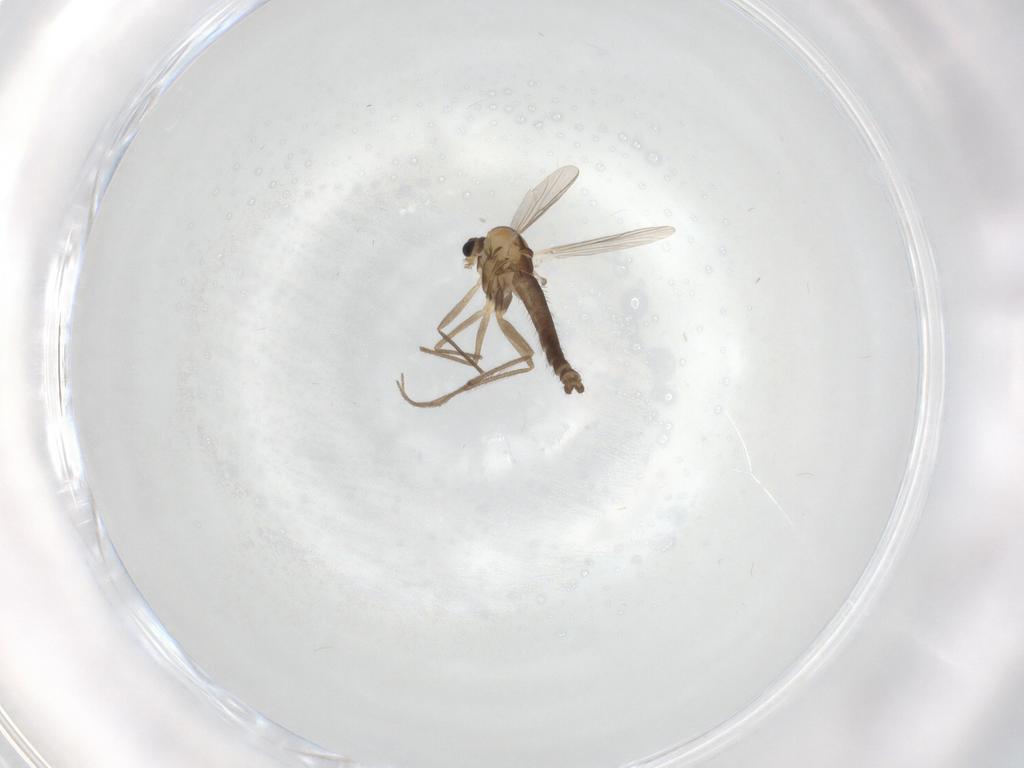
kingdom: Animalia
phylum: Arthropoda
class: Insecta
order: Diptera
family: Chironomidae
